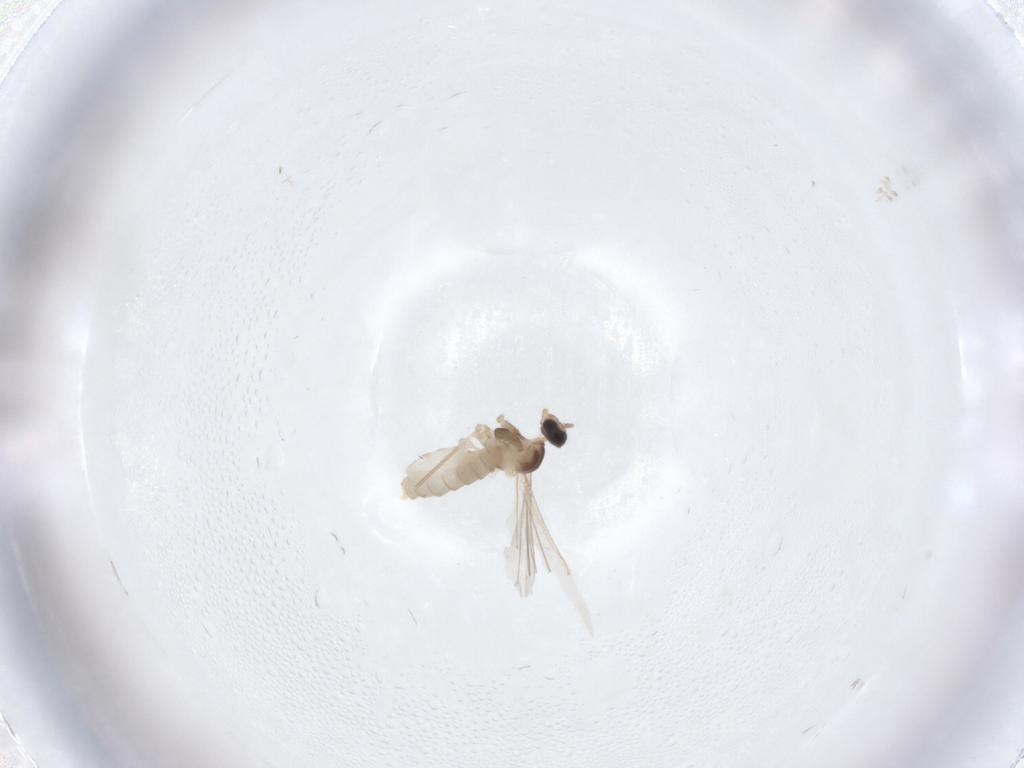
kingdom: Animalia
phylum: Arthropoda
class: Insecta
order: Diptera
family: Cecidomyiidae
